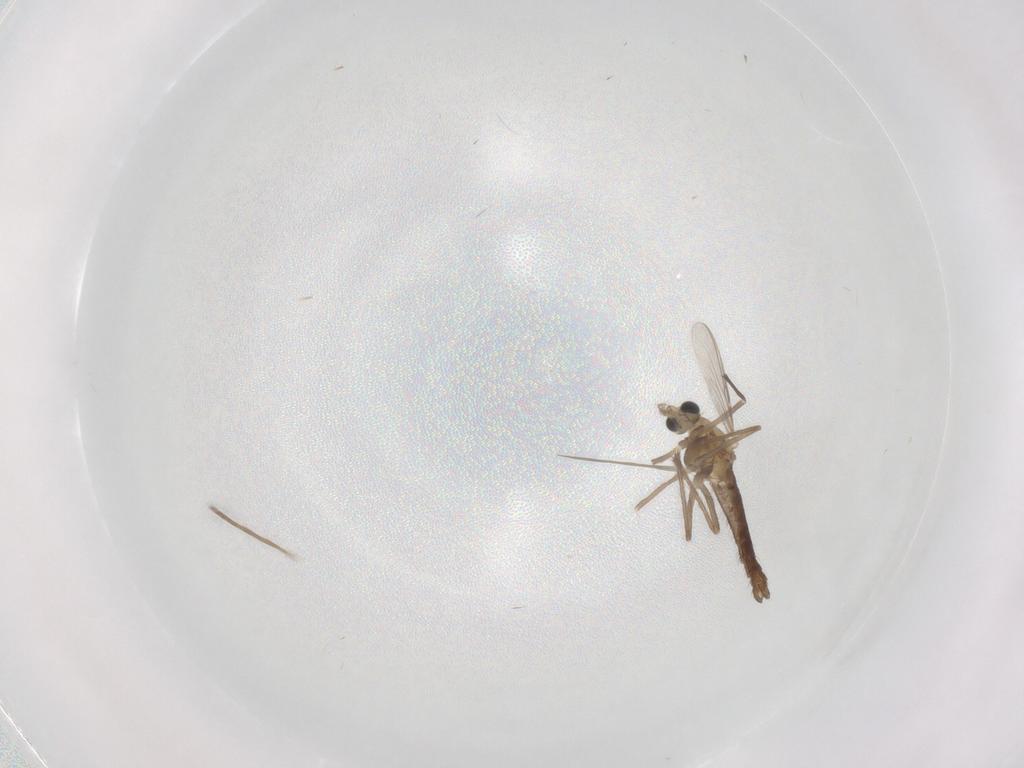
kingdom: Animalia
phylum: Arthropoda
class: Insecta
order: Diptera
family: Chironomidae
